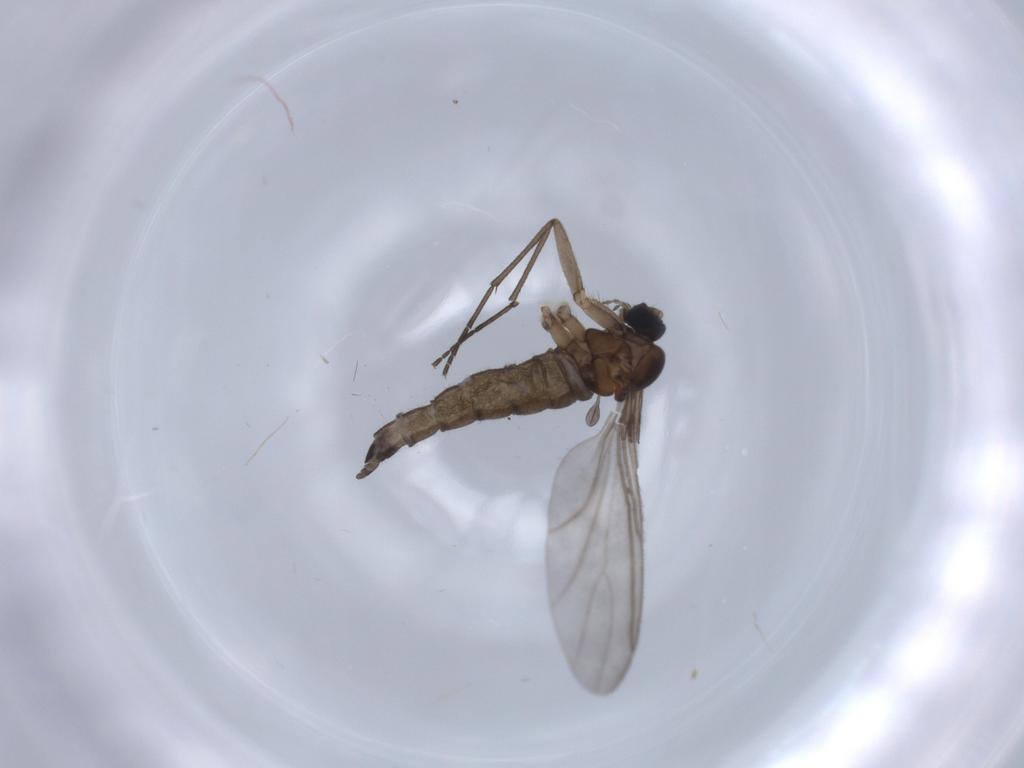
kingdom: Animalia
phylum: Arthropoda
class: Insecta
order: Diptera
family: Sciaridae
